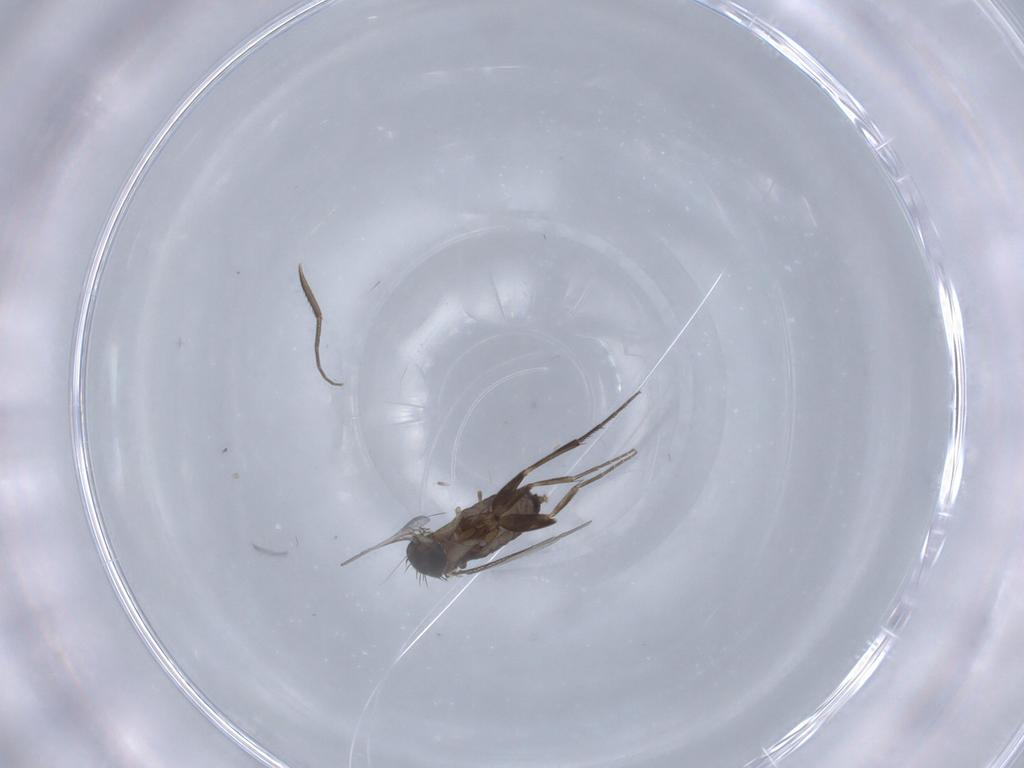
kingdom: Animalia
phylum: Arthropoda
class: Insecta
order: Diptera
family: Phoridae
